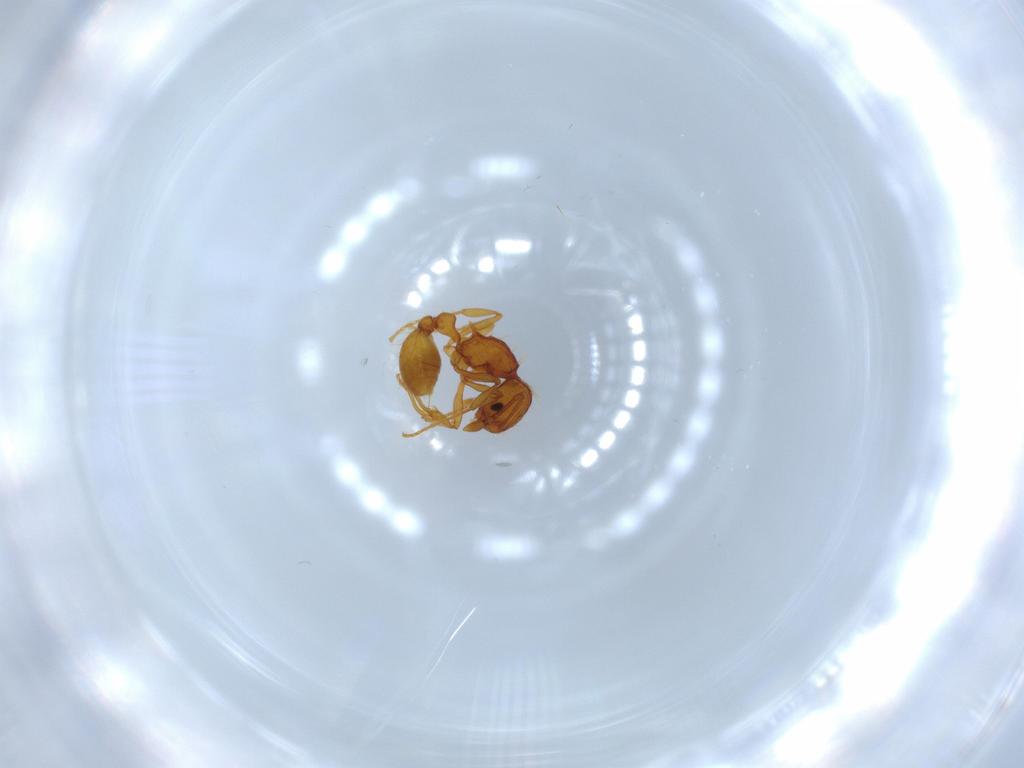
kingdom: Animalia
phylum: Arthropoda
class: Insecta
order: Hymenoptera
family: Formicidae
